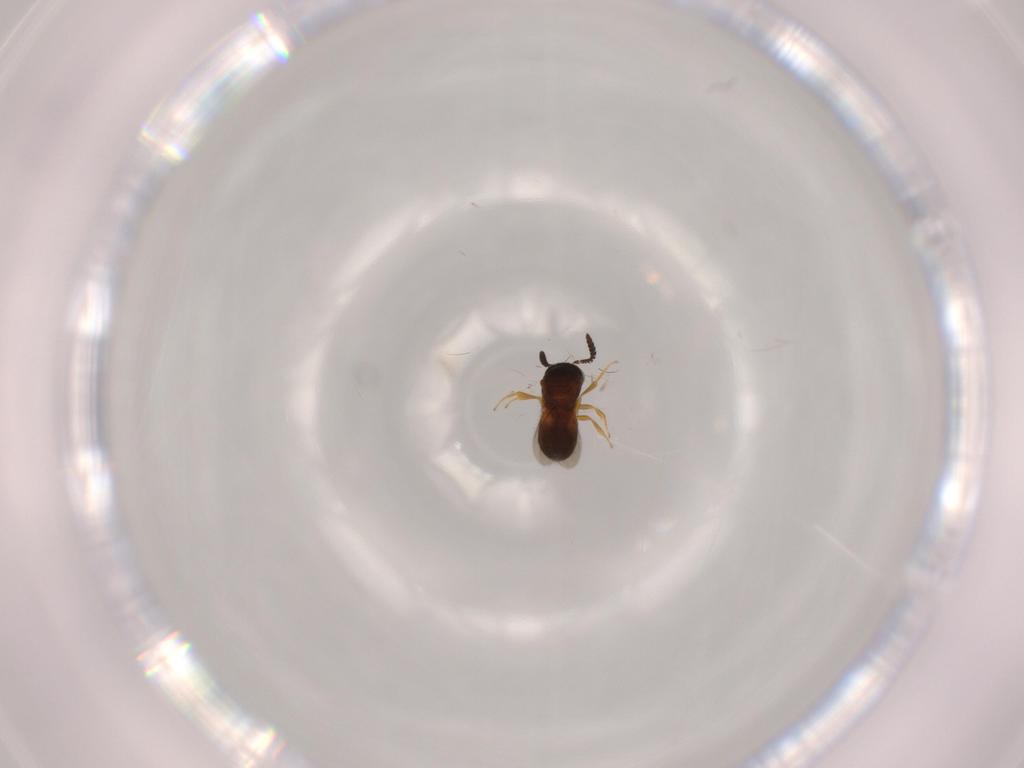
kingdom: Animalia
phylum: Arthropoda
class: Insecta
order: Hymenoptera
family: Scelionidae
